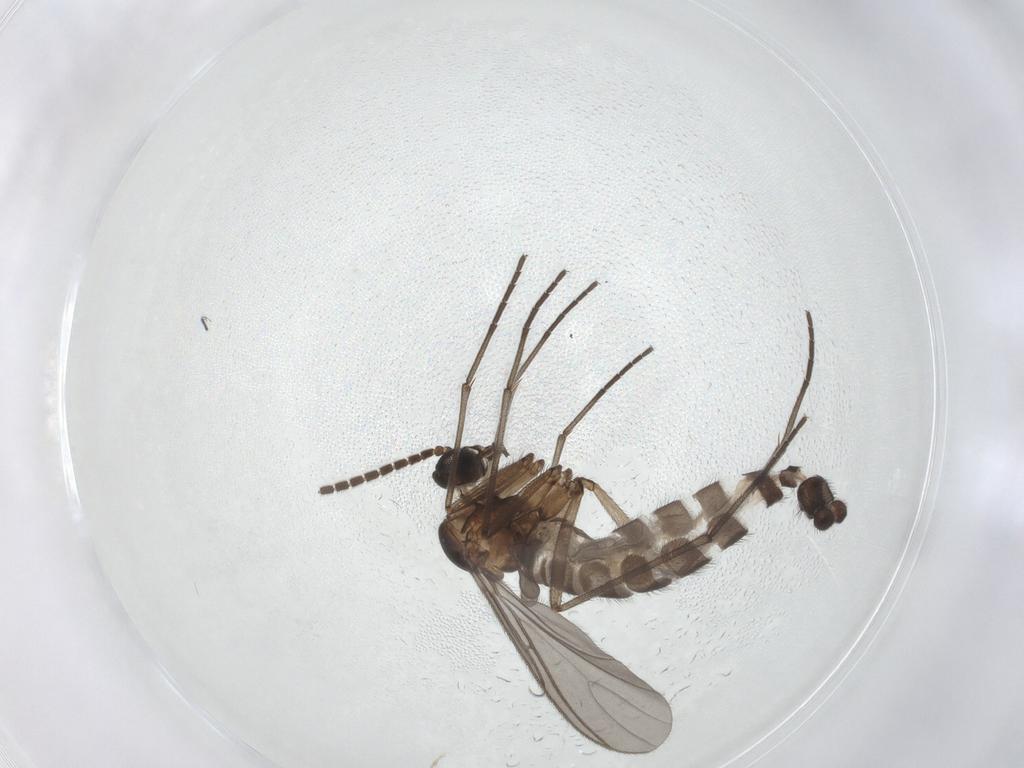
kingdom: Animalia
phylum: Arthropoda
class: Insecta
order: Diptera
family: Sciaridae
